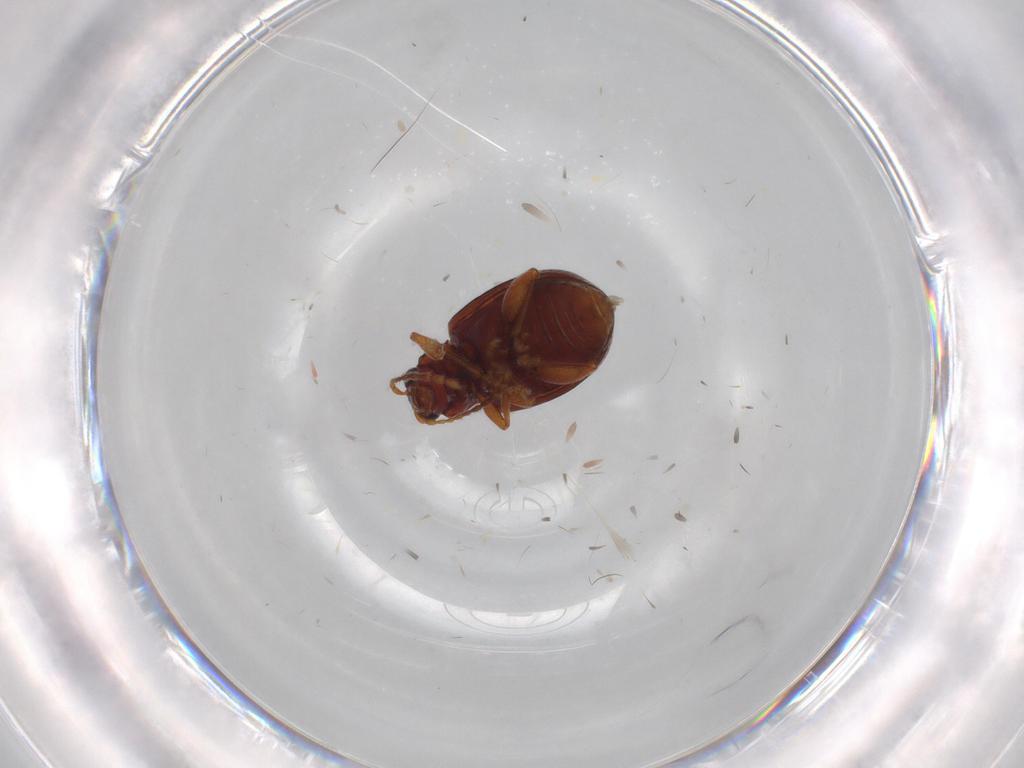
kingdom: Animalia
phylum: Arthropoda
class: Insecta
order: Coleoptera
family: Chrysomelidae
